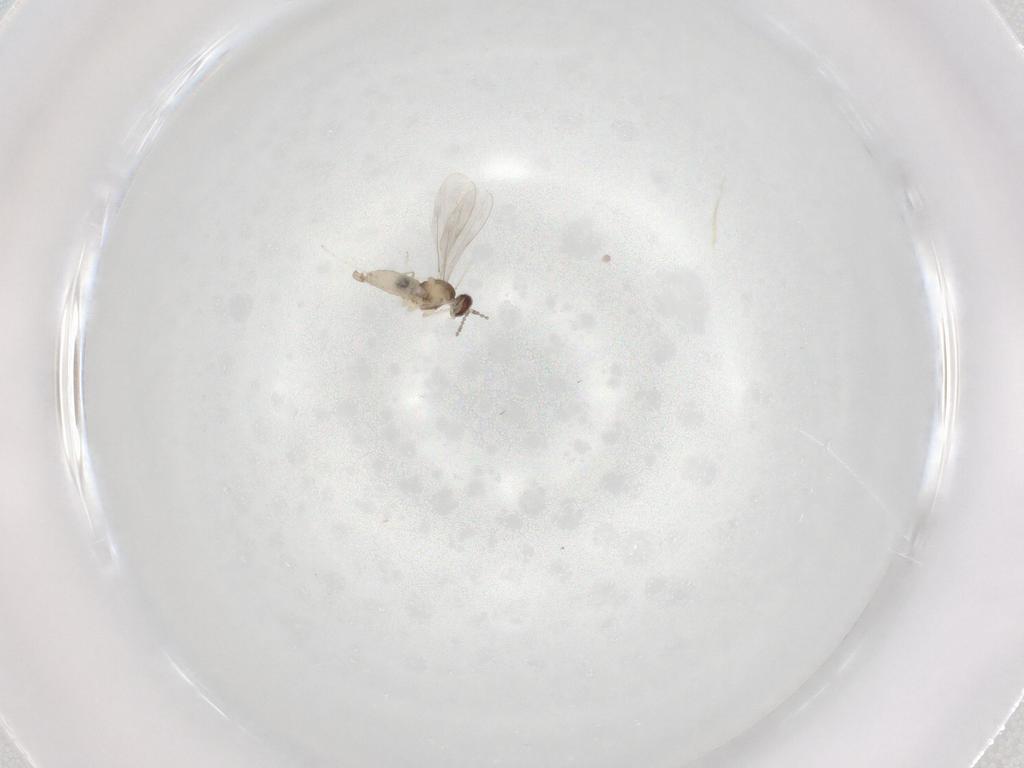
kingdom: Animalia
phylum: Arthropoda
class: Insecta
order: Diptera
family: Cecidomyiidae
